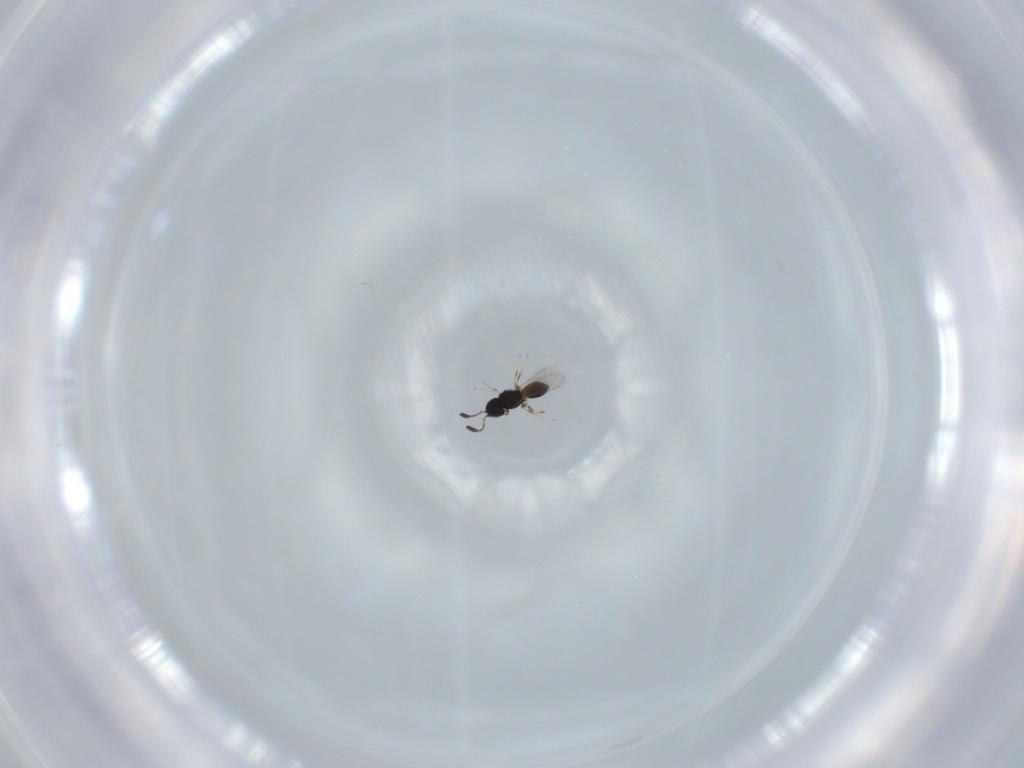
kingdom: Animalia
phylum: Arthropoda
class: Insecta
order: Hymenoptera
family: Scelionidae
